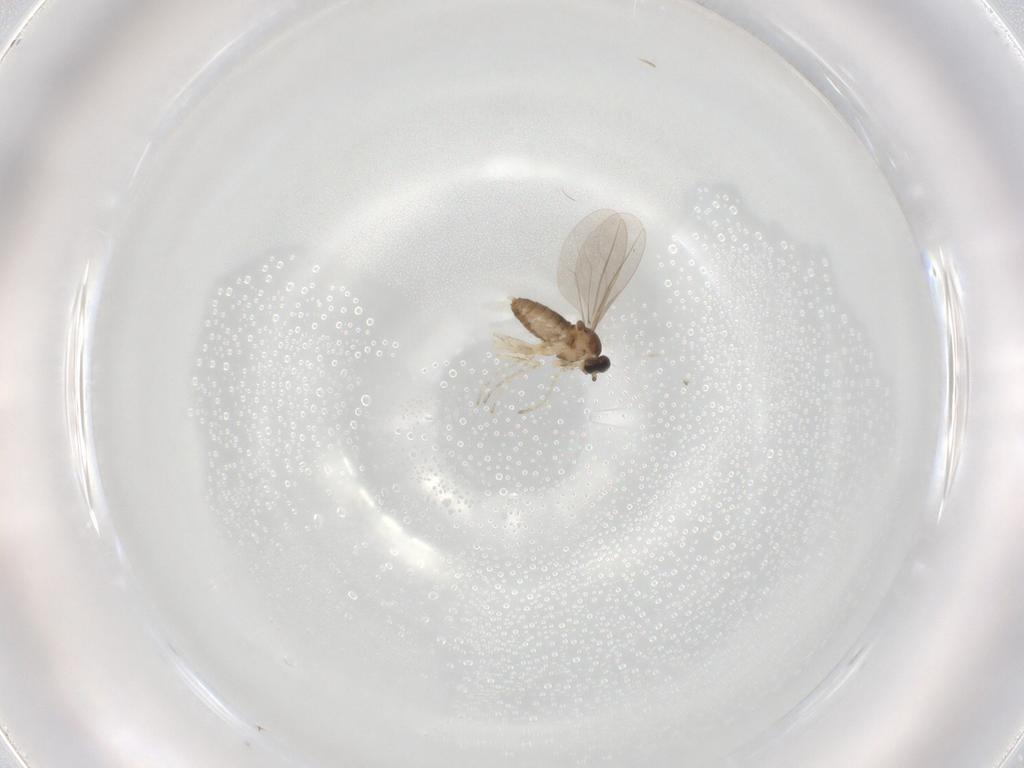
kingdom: Animalia
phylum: Arthropoda
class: Insecta
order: Diptera
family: Cecidomyiidae
